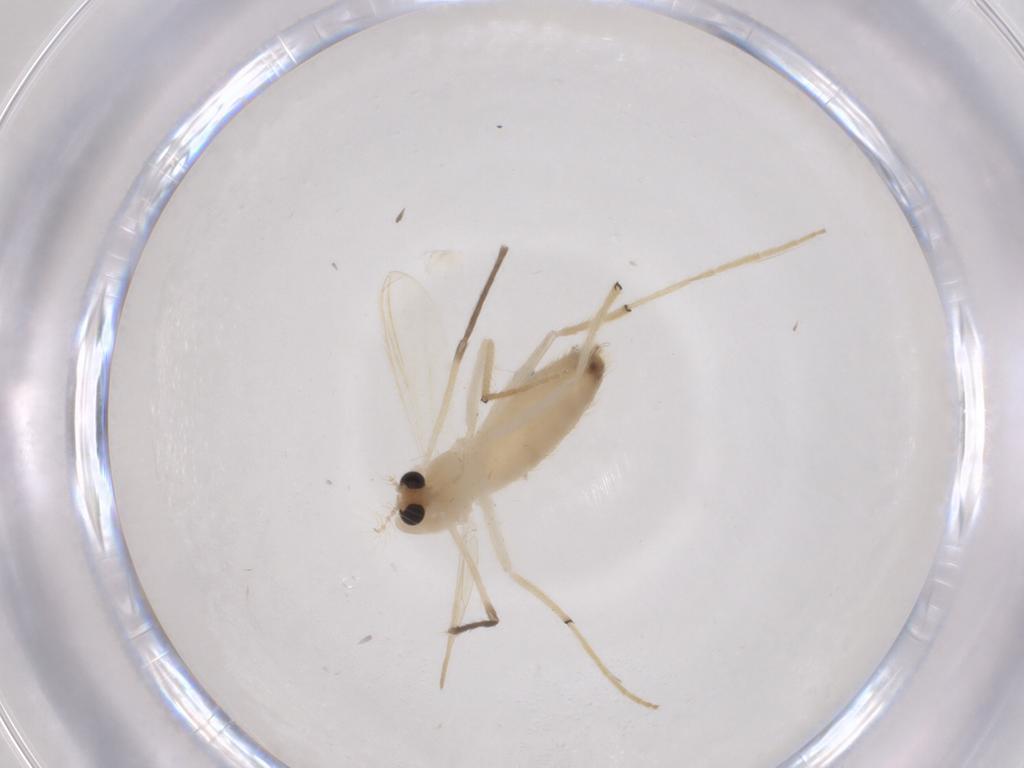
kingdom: Animalia
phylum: Arthropoda
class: Insecta
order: Diptera
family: Chironomidae
